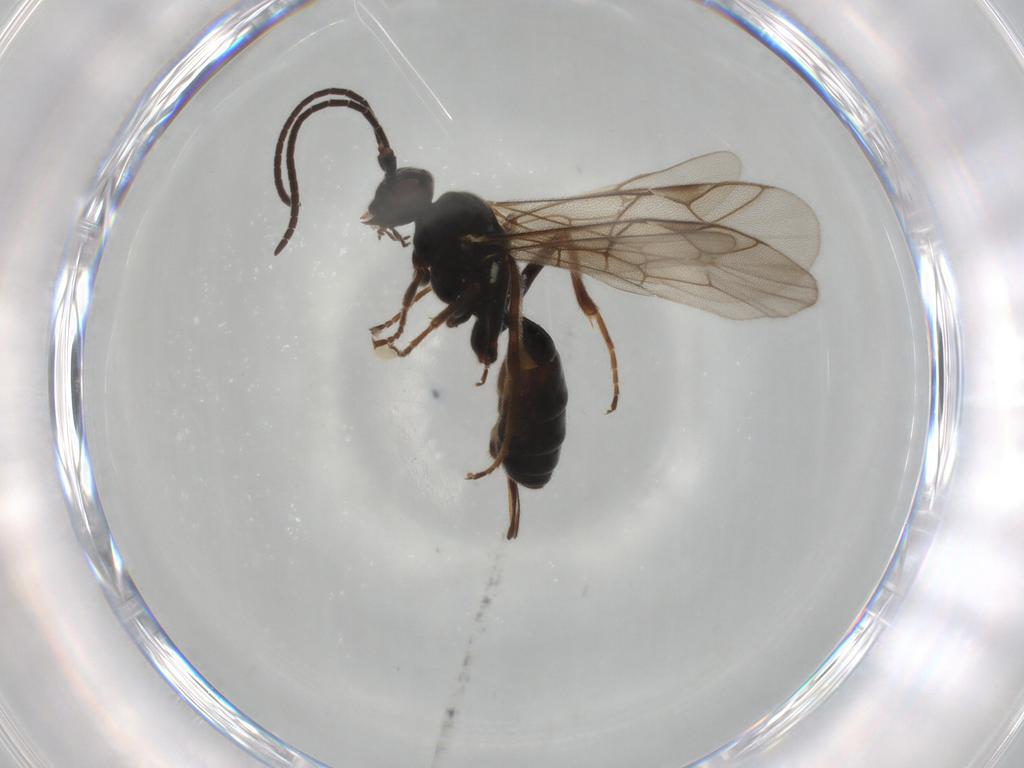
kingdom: Animalia
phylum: Arthropoda
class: Insecta
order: Hymenoptera
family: Ichneumonidae
